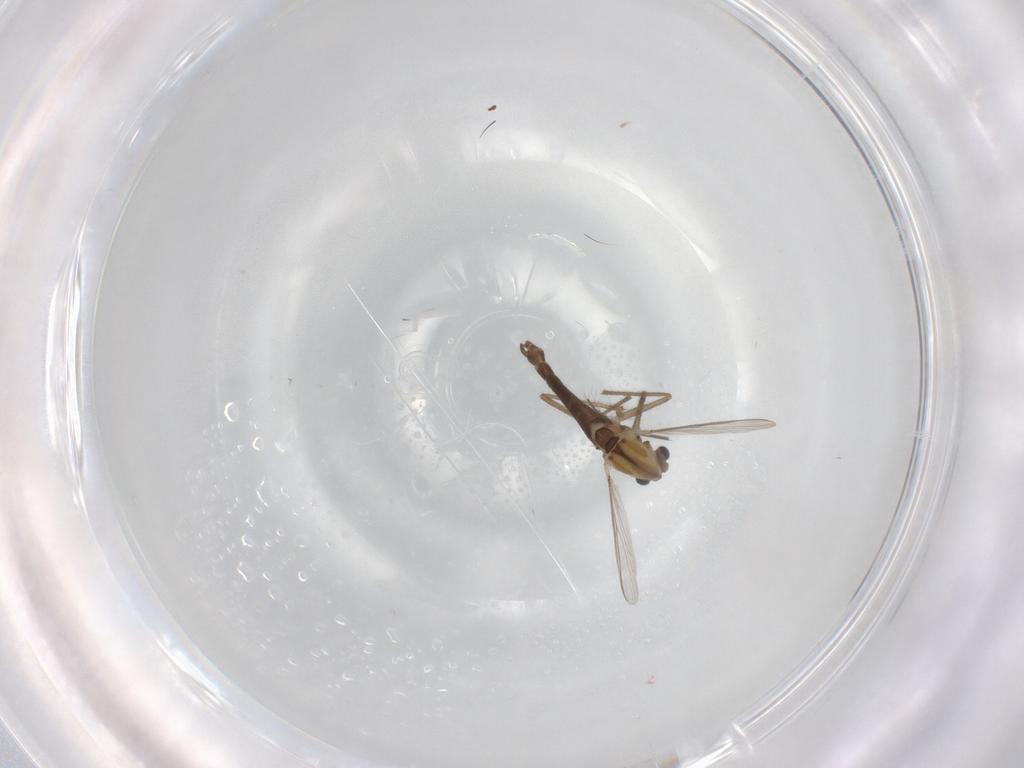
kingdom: Animalia
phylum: Arthropoda
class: Insecta
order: Diptera
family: Chironomidae
